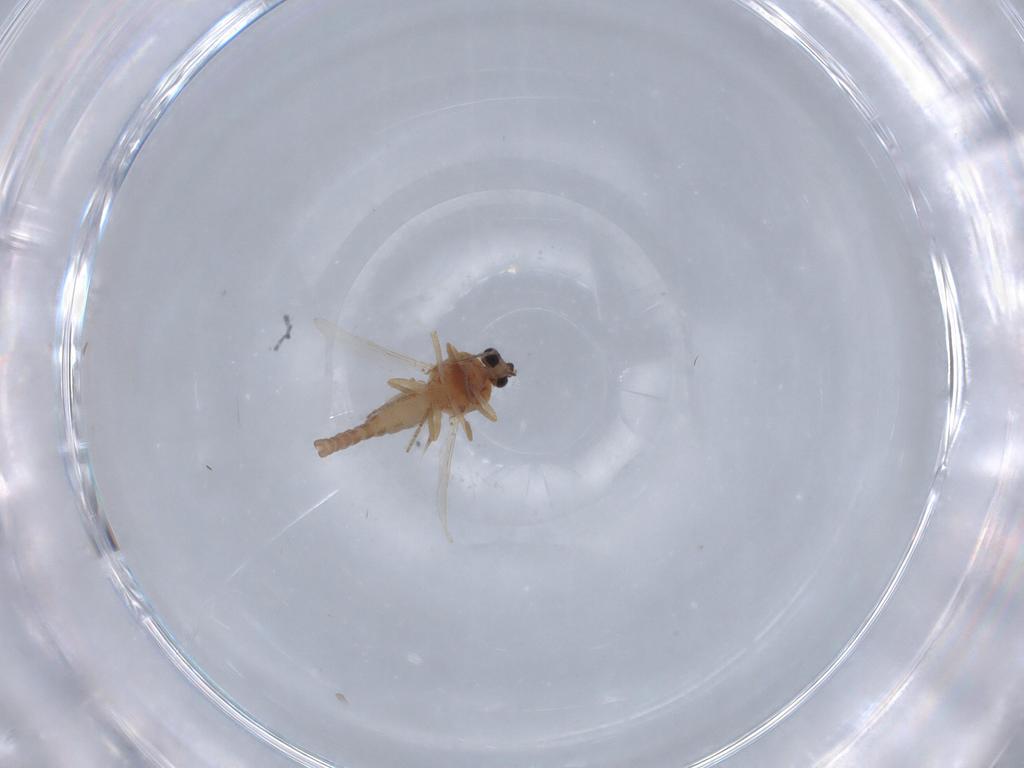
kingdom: Animalia
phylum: Arthropoda
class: Insecta
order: Diptera
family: Ceratopogonidae
